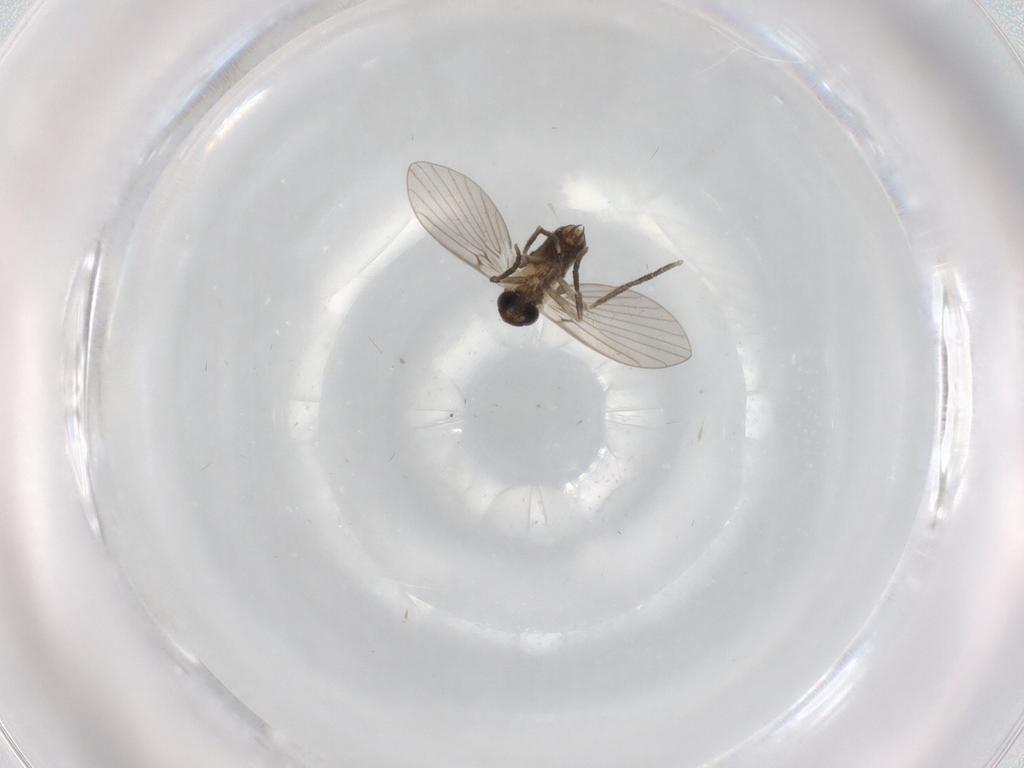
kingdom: Animalia
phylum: Arthropoda
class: Insecta
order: Diptera
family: Psychodidae
